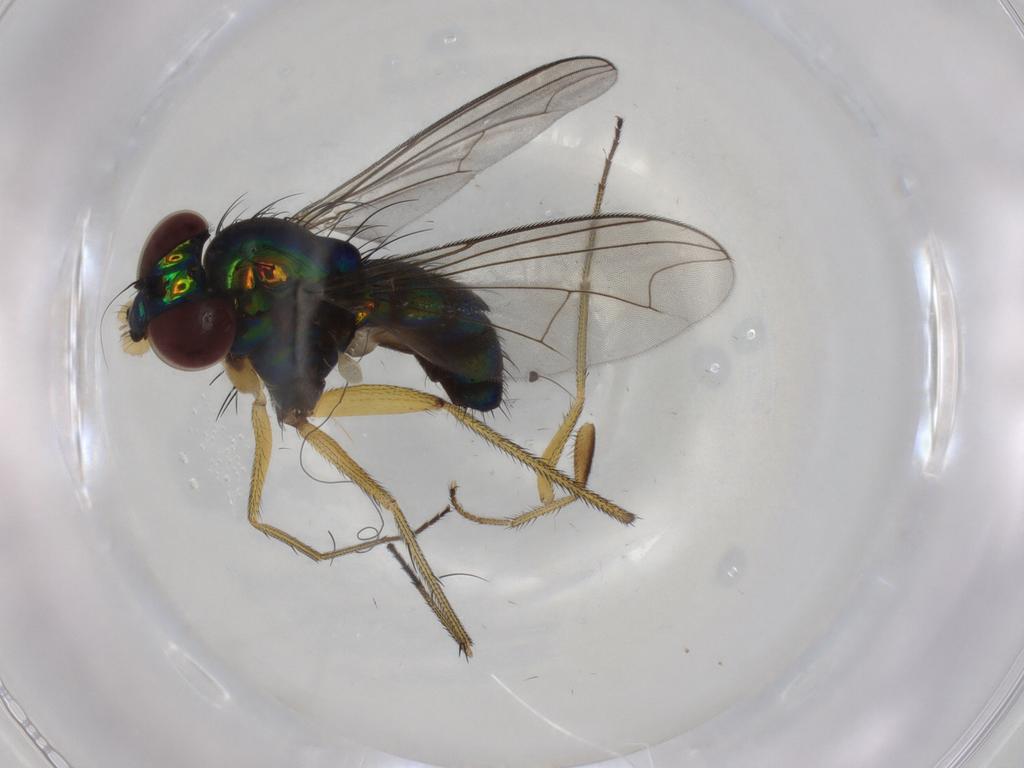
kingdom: Animalia
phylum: Arthropoda
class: Insecta
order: Diptera
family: Dolichopodidae
